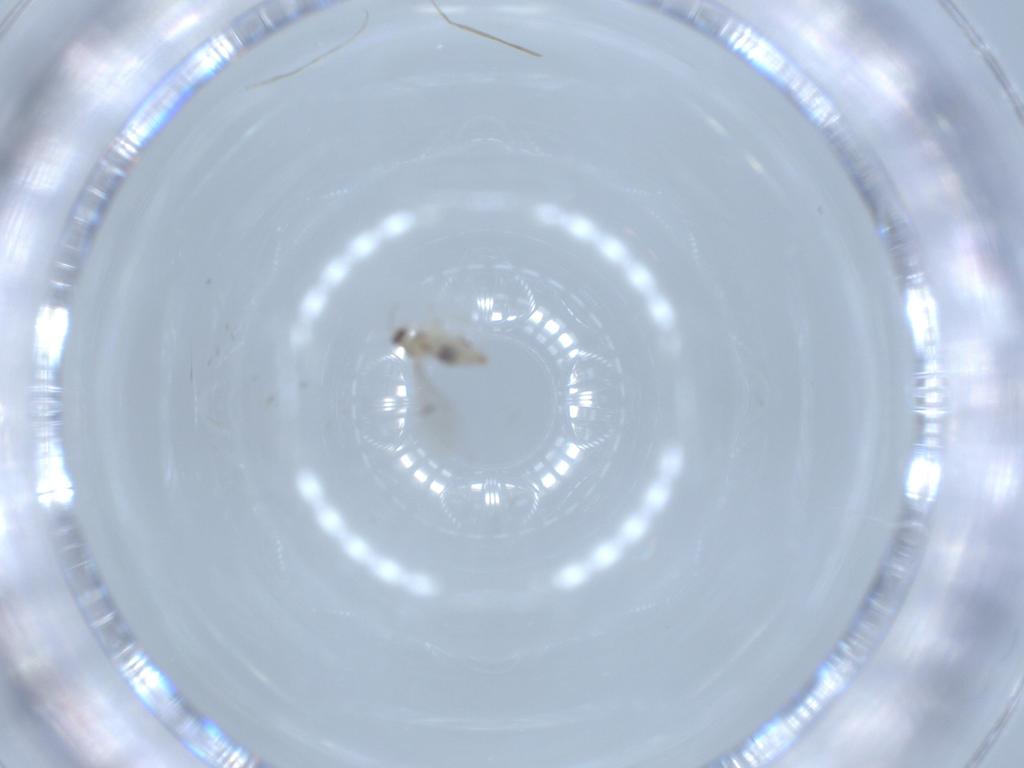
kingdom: Animalia
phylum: Arthropoda
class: Insecta
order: Diptera
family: Cecidomyiidae
